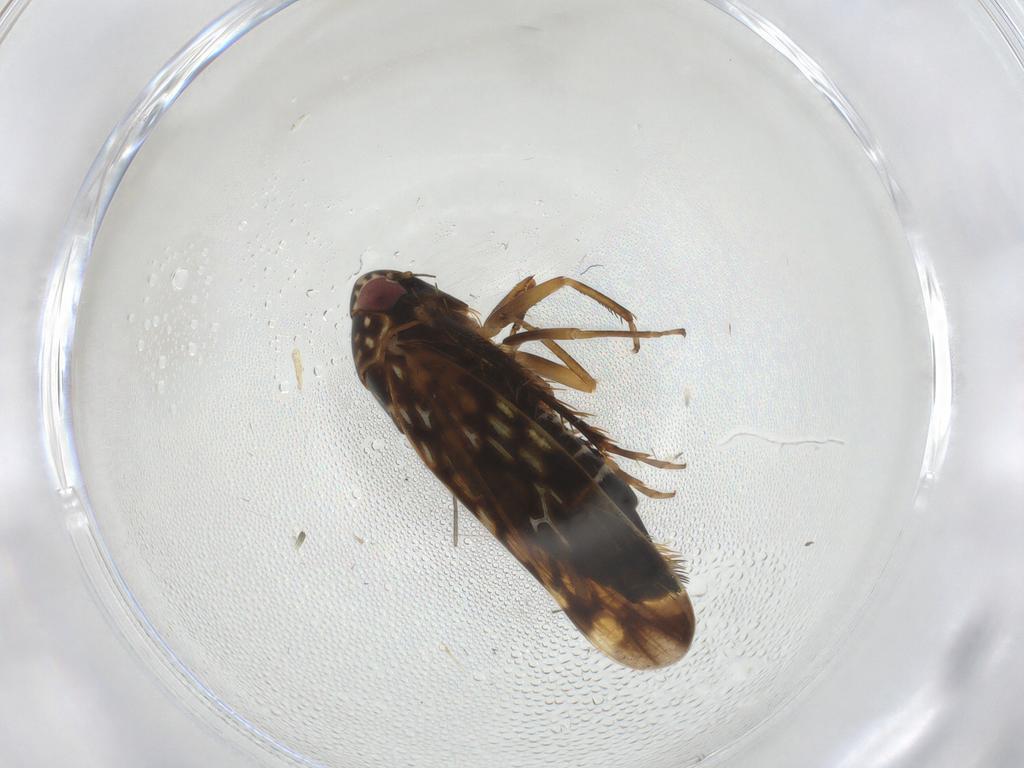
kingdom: Animalia
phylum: Arthropoda
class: Insecta
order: Hemiptera
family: Cicadellidae
